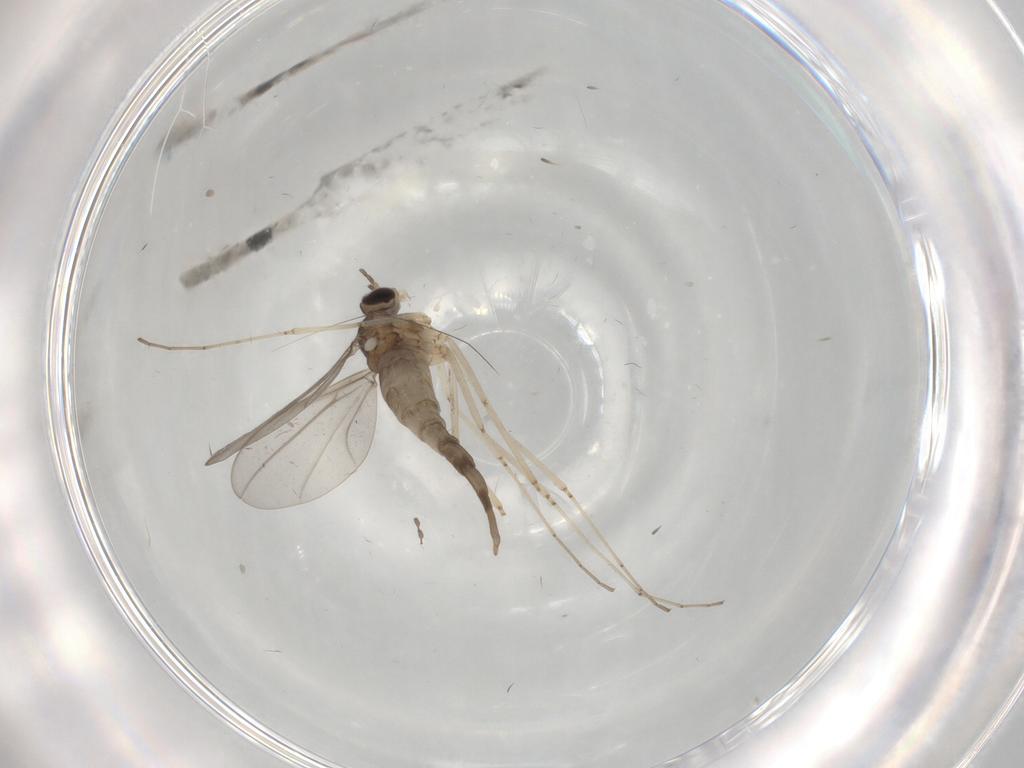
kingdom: Animalia
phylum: Arthropoda
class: Insecta
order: Diptera
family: Cecidomyiidae
